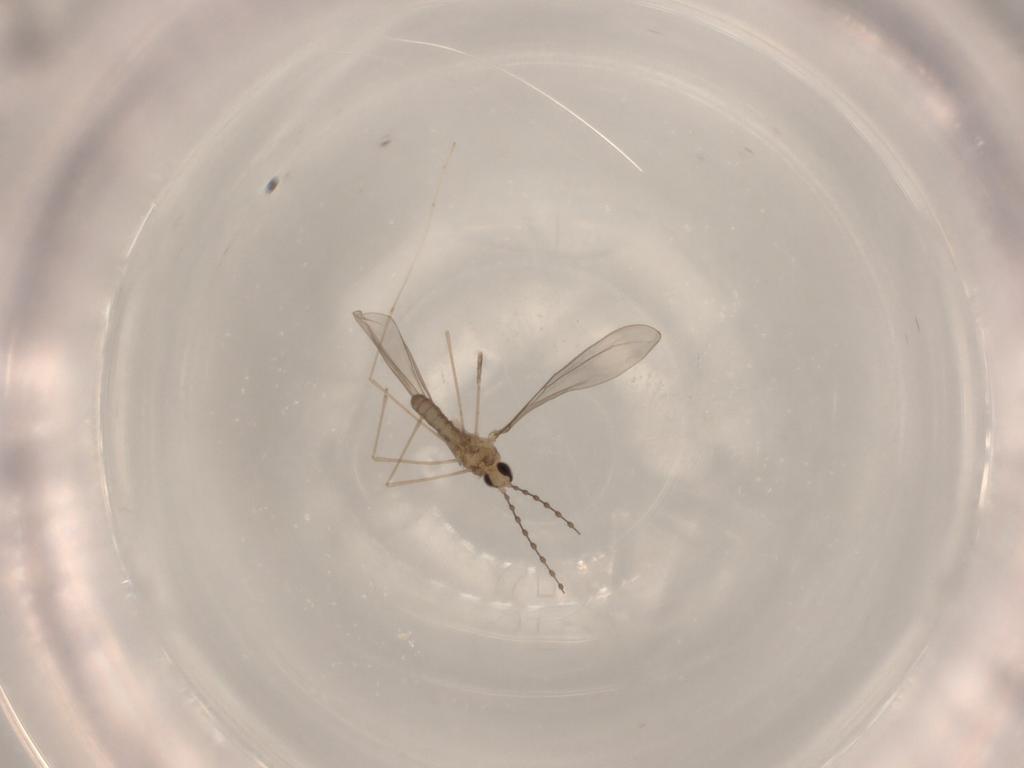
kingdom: Animalia
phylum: Arthropoda
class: Insecta
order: Diptera
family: Cecidomyiidae
